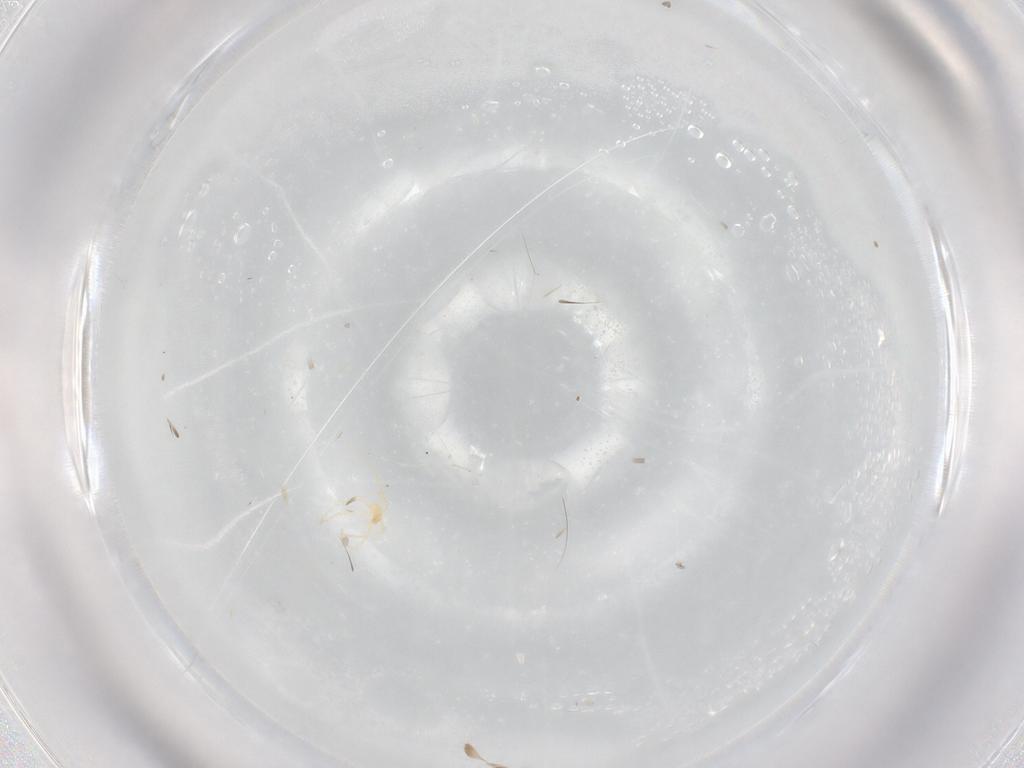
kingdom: Animalia
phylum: Arthropoda
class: Arachnida
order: Trombidiformes
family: Erythraeidae
